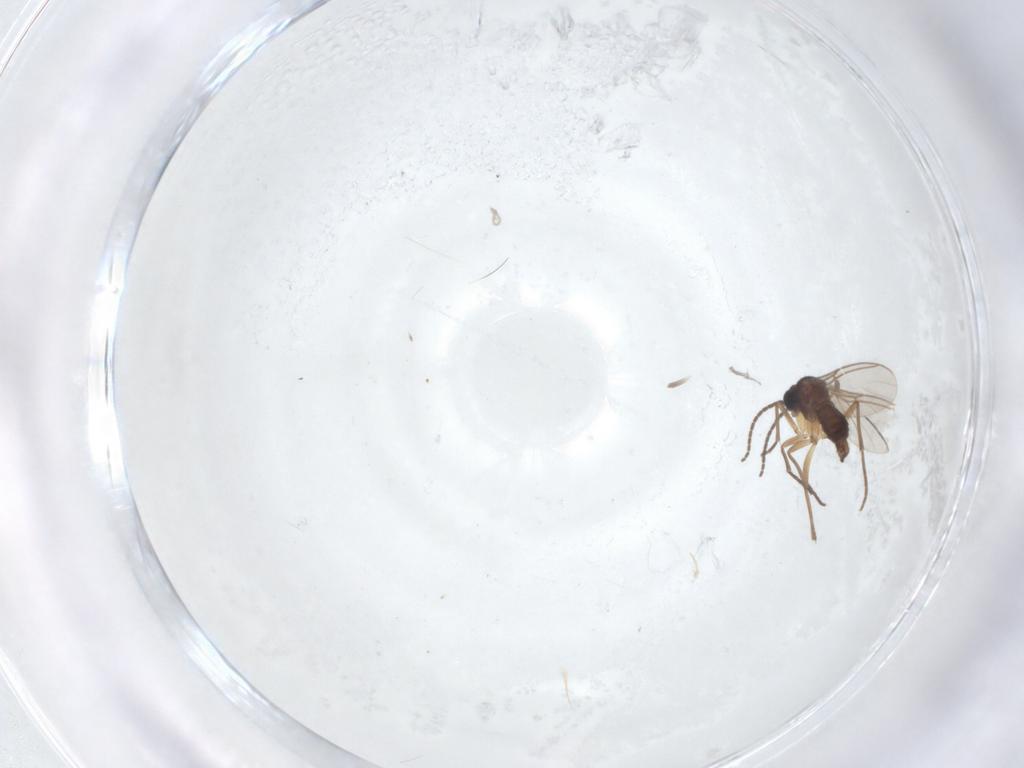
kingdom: Animalia
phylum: Arthropoda
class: Insecta
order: Diptera
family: Sciaridae
